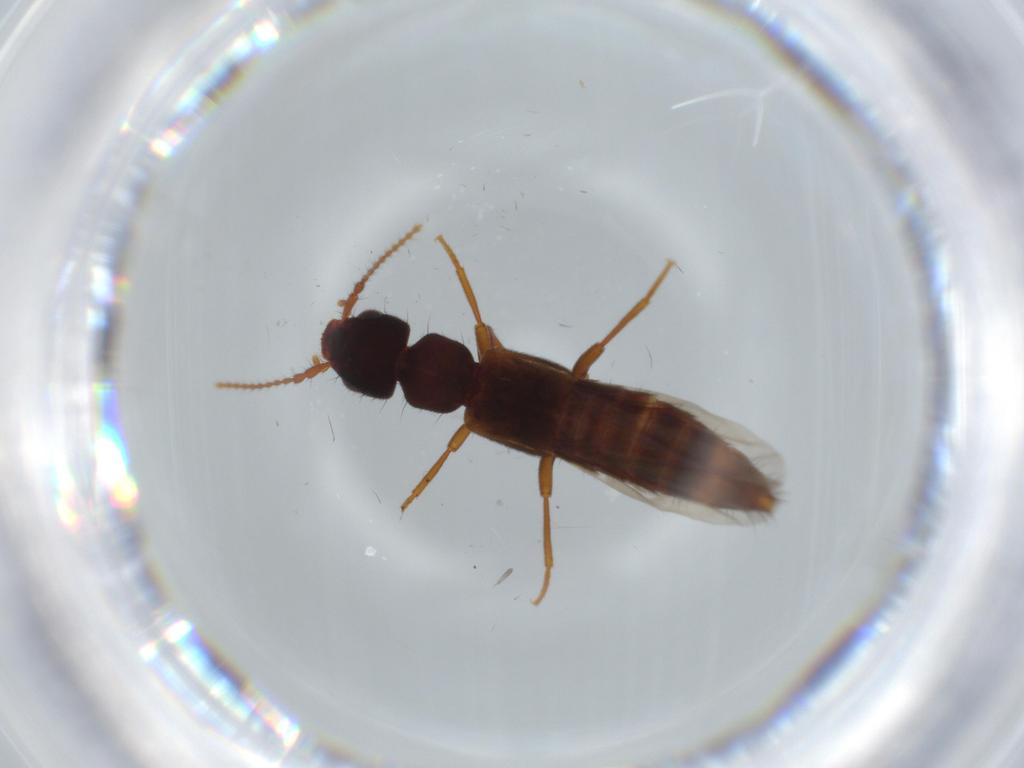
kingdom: Animalia
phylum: Arthropoda
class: Insecta
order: Coleoptera
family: Staphylinidae
